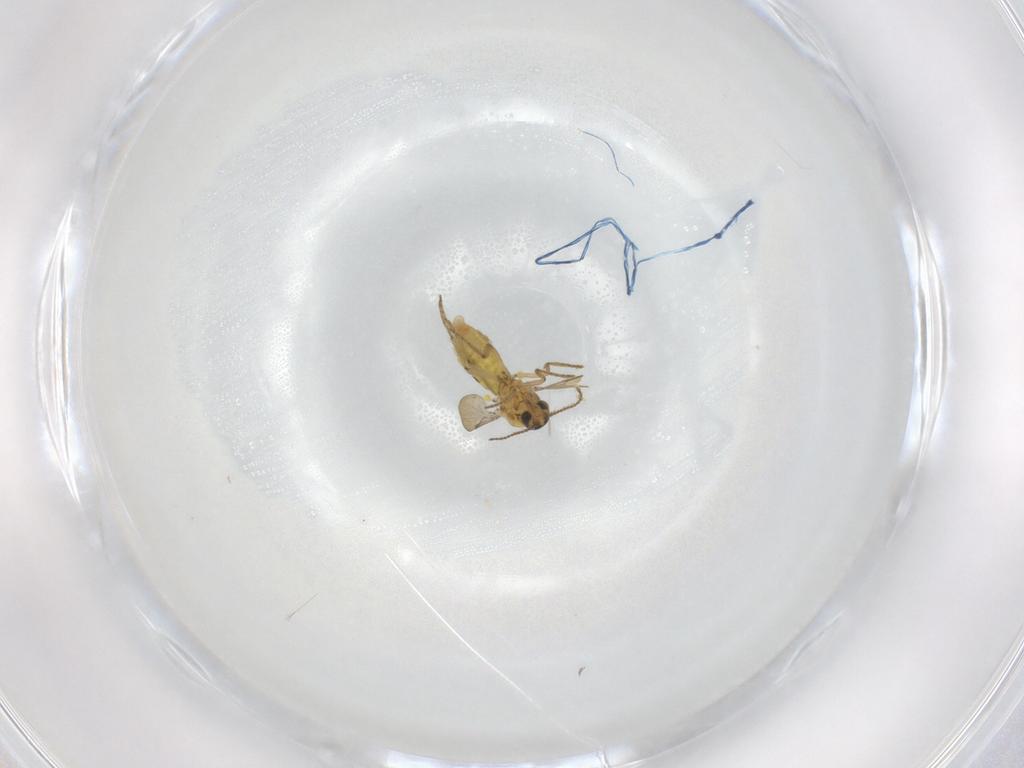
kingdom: Animalia
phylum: Arthropoda
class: Insecta
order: Diptera
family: Ceratopogonidae
